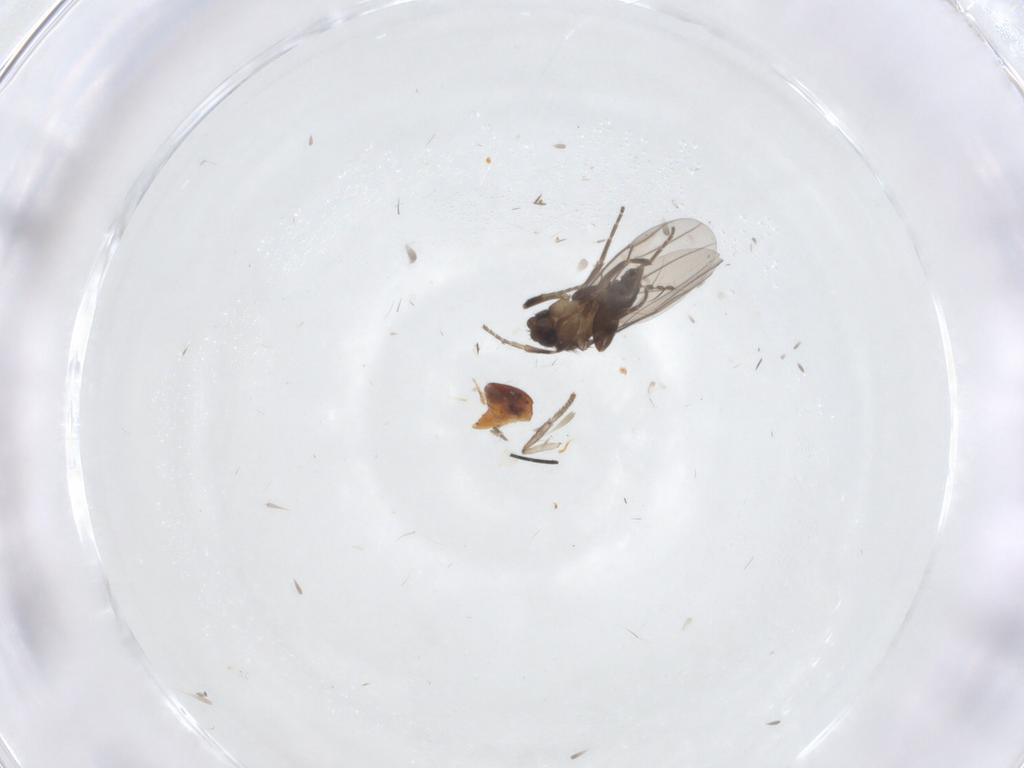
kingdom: Animalia
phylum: Arthropoda
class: Insecta
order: Diptera
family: Psychodidae
